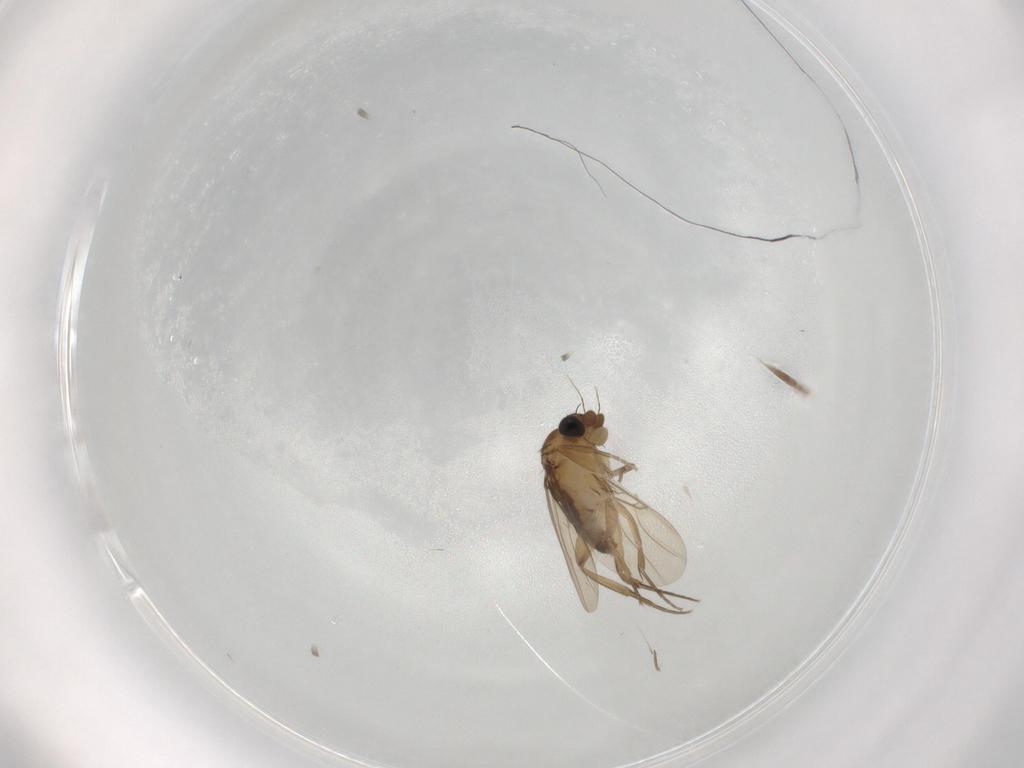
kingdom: Animalia
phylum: Arthropoda
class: Insecta
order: Diptera
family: Phoridae
